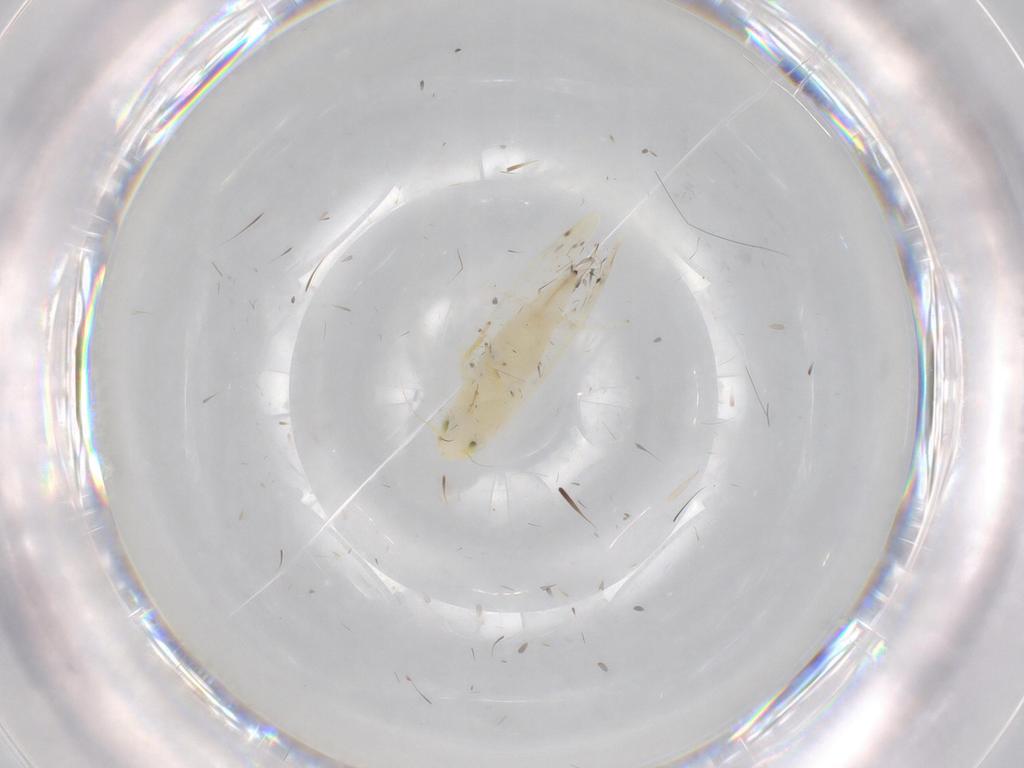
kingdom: Animalia
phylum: Arthropoda
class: Insecta
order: Hemiptera
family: Cicadellidae
